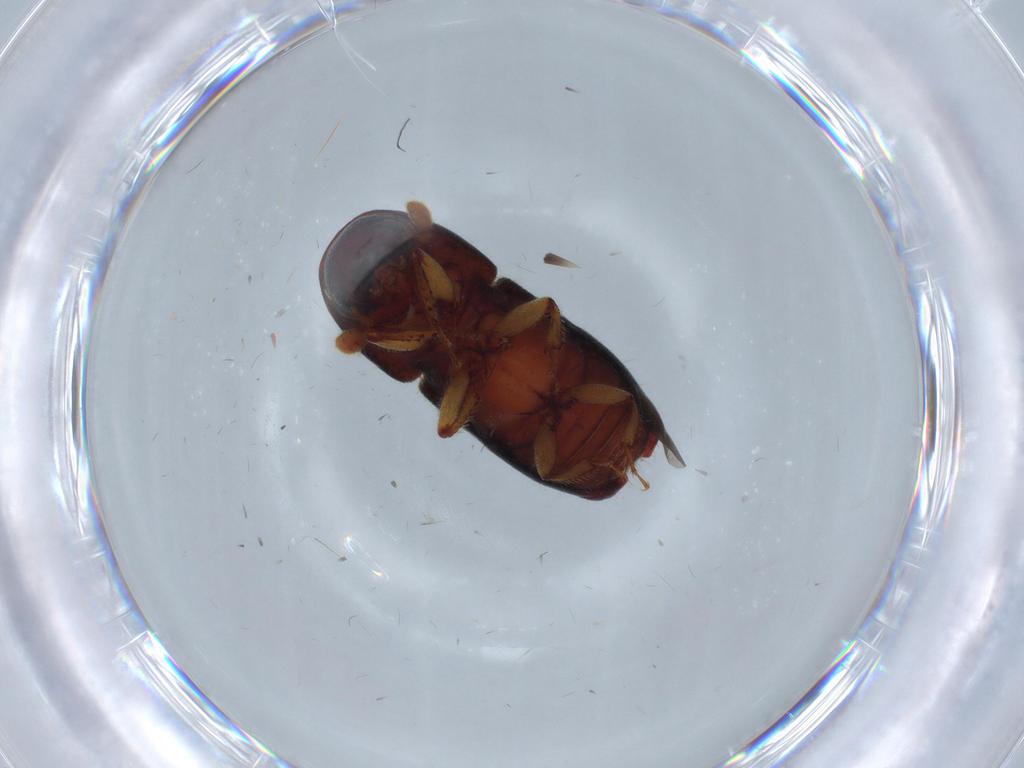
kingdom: Animalia
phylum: Arthropoda
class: Insecta
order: Coleoptera
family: Curculionidae
